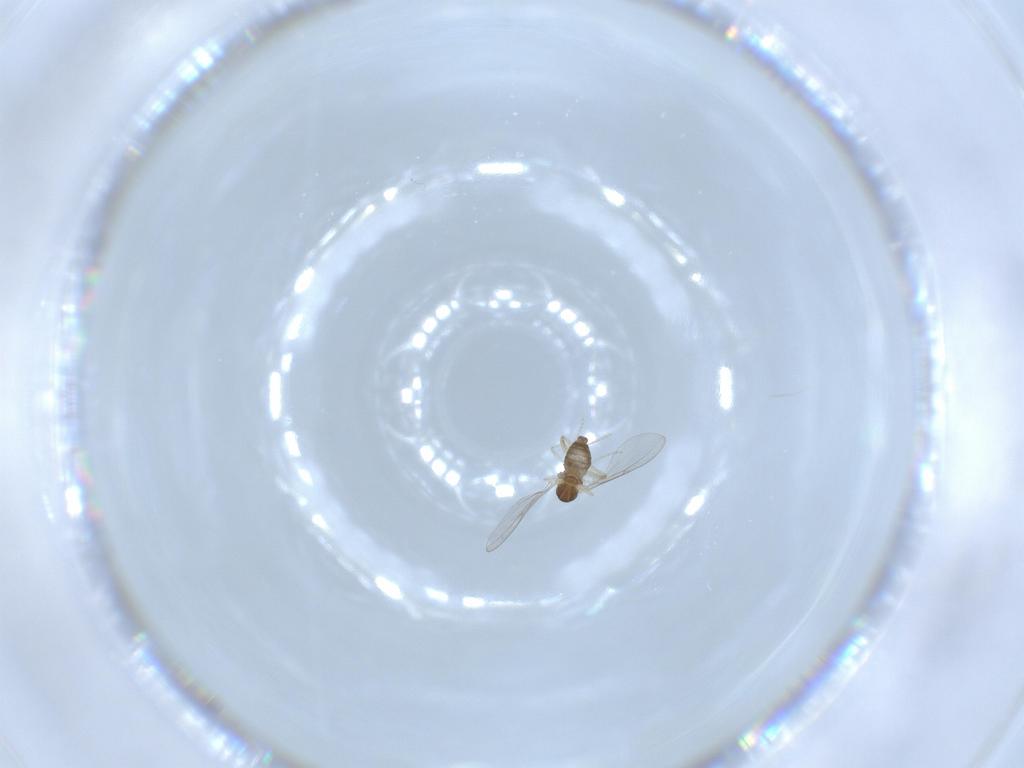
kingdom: Animalia
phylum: Arthropoda
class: Insecta
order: Diptera
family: Cecidomyiidae
